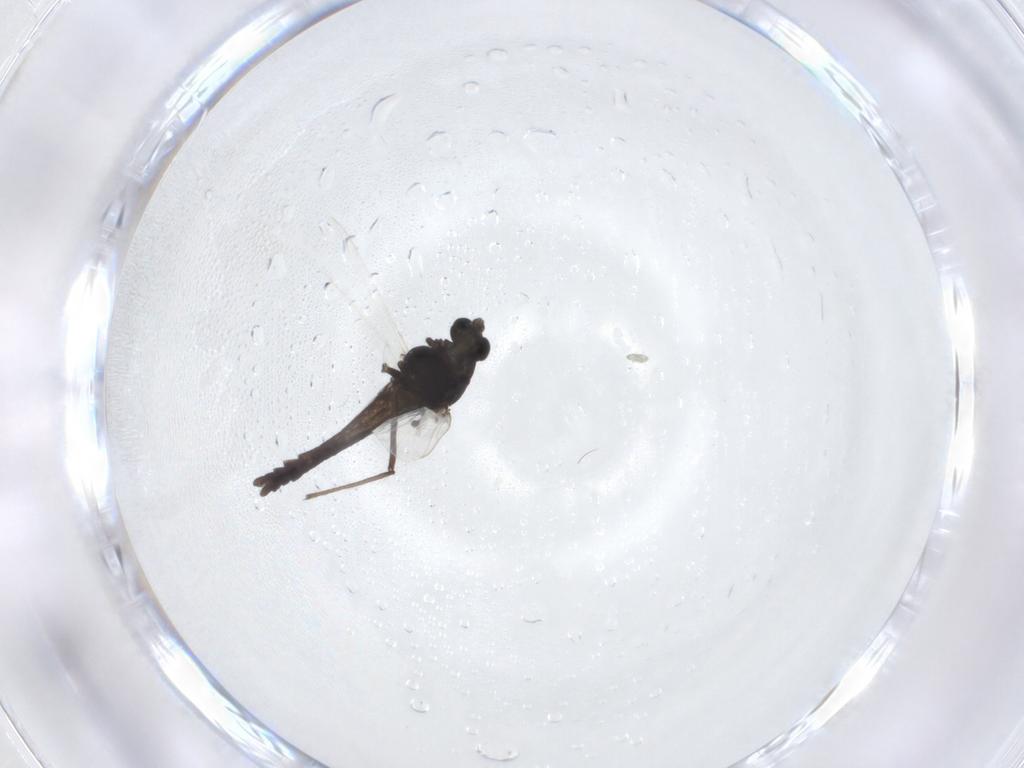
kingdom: Animalia
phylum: Arthropoda
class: Insecta
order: Diptera
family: Chironomidae
